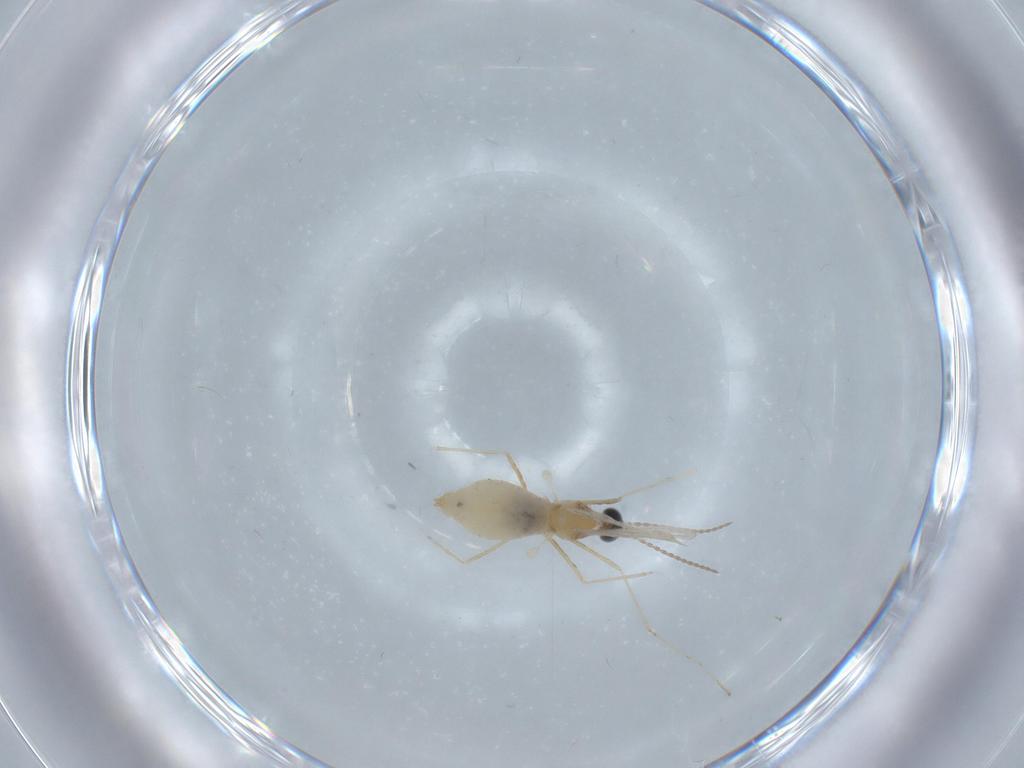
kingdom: Animalia
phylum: Arthropoda
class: Insecta
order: Diptera
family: Cecidomyiidae
